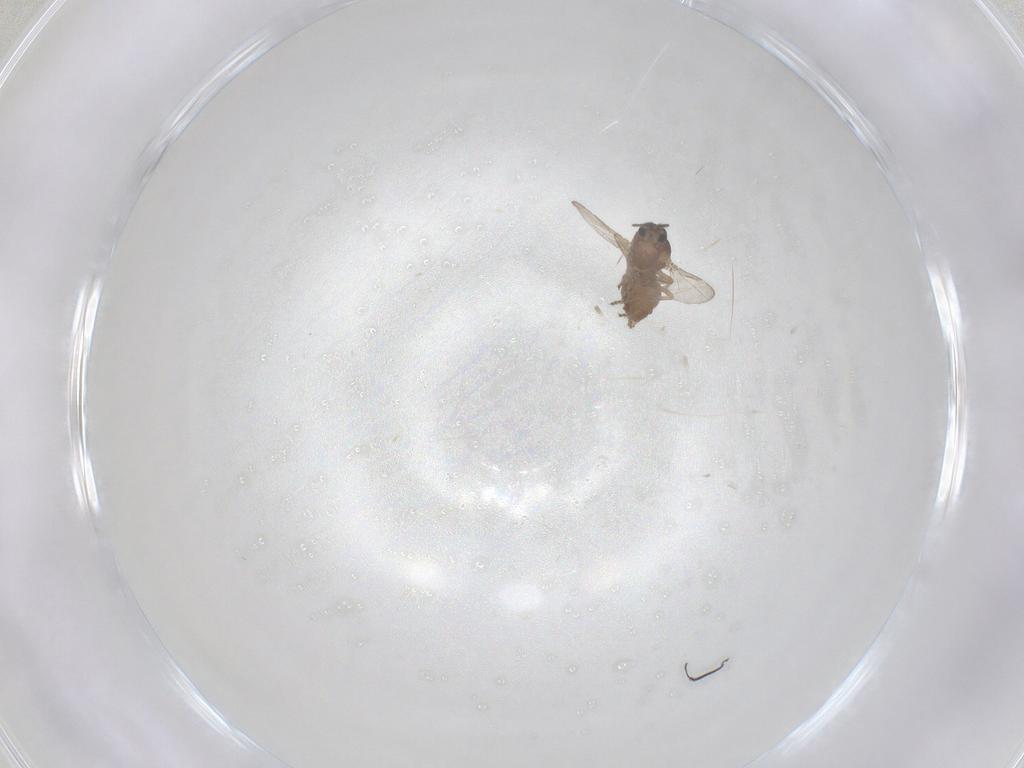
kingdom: Animalia
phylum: Arthropoda
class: Insecta
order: Diptera
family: Ceratopogonidae
